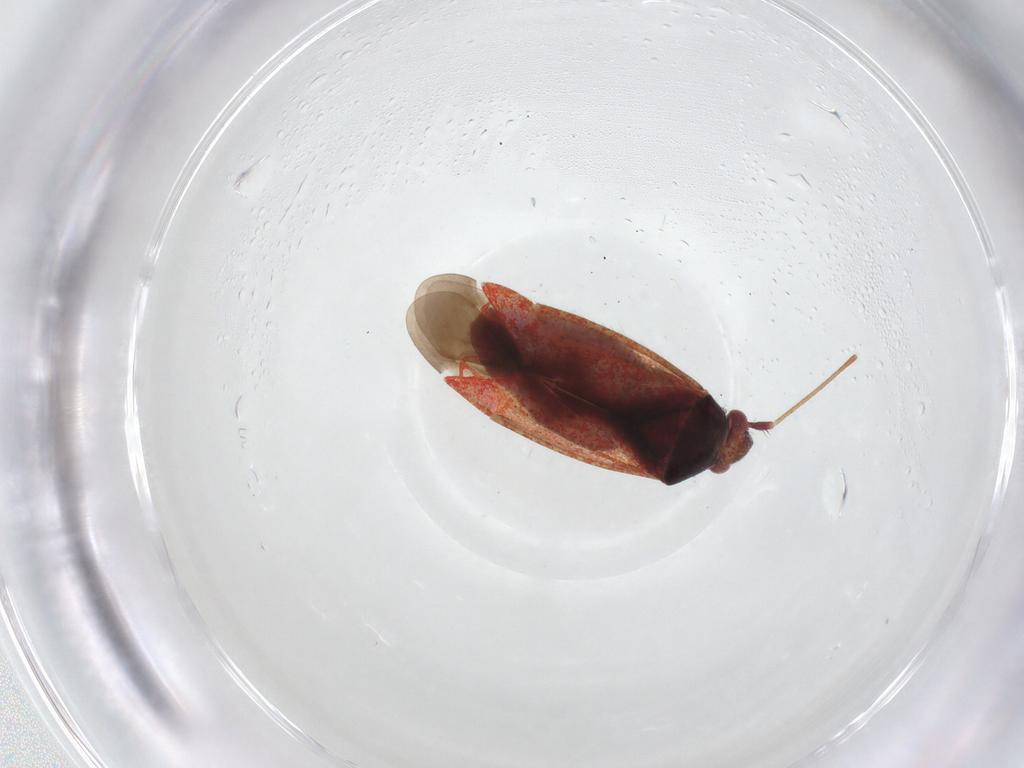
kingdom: Animalia
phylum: Arthropoda
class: Insecta
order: Hemiptera
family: Miridae
